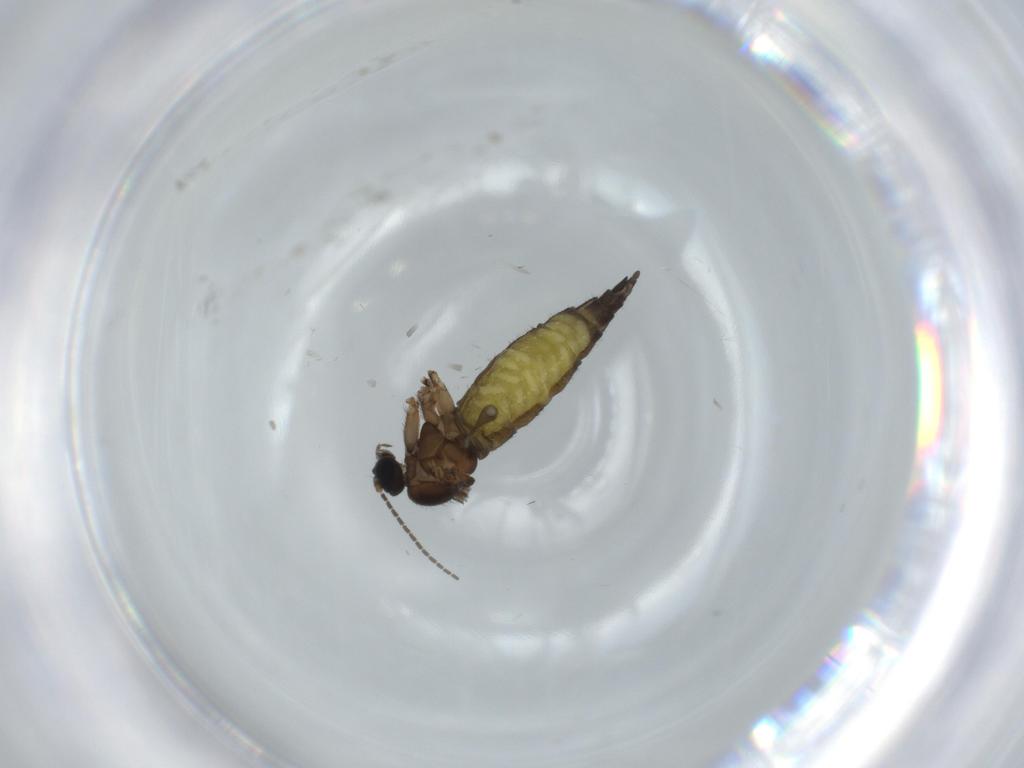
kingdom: Animalia
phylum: Arthropoda
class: Insecta
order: Diptera
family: Sciaridae
